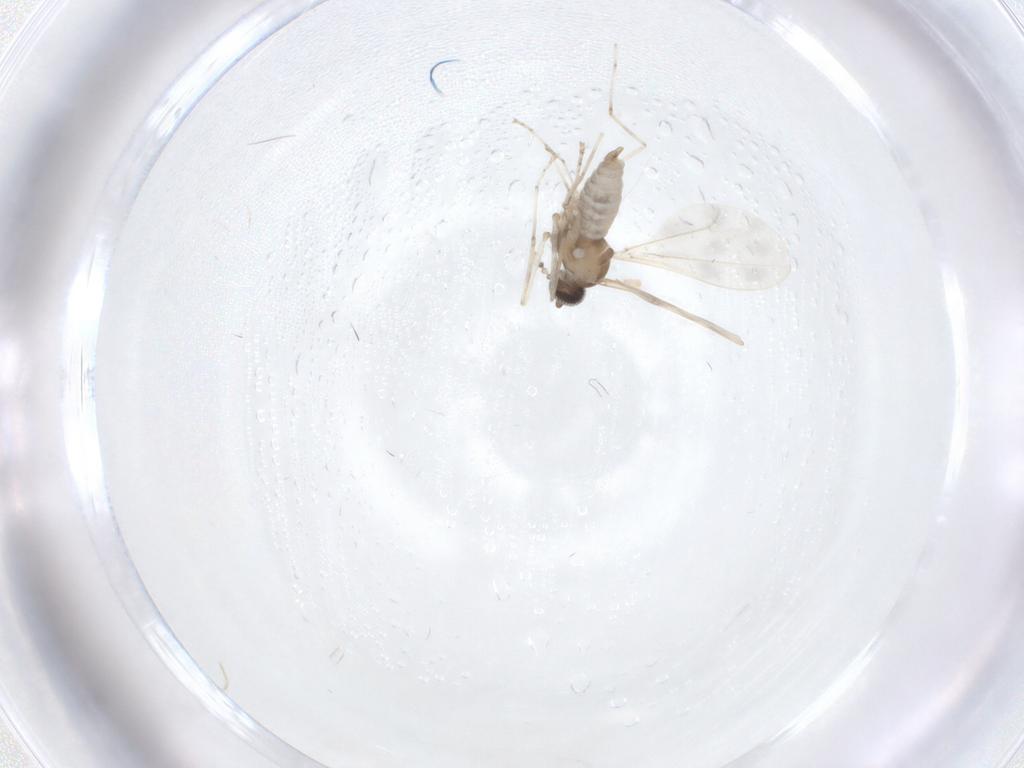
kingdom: Animalia
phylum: Arthropoda
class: Insecta
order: Diptera
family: Cecidomyiidae
